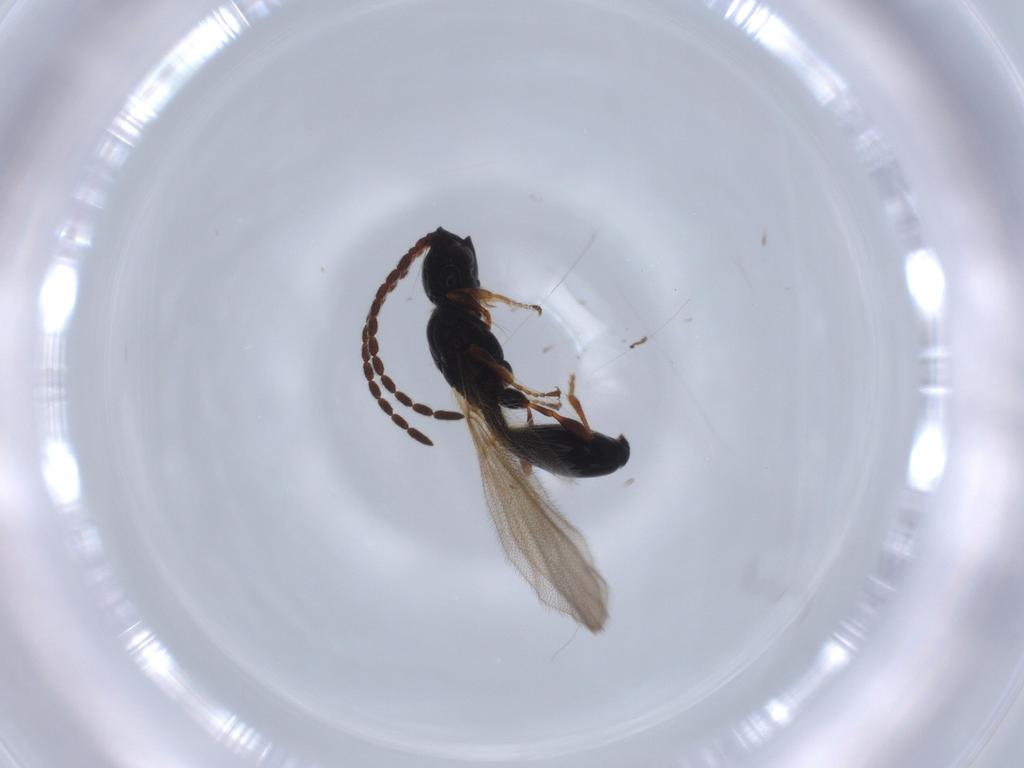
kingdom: Animalia
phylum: Arthropoda
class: Insecta
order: Hymenoptera
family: Diapriidae
